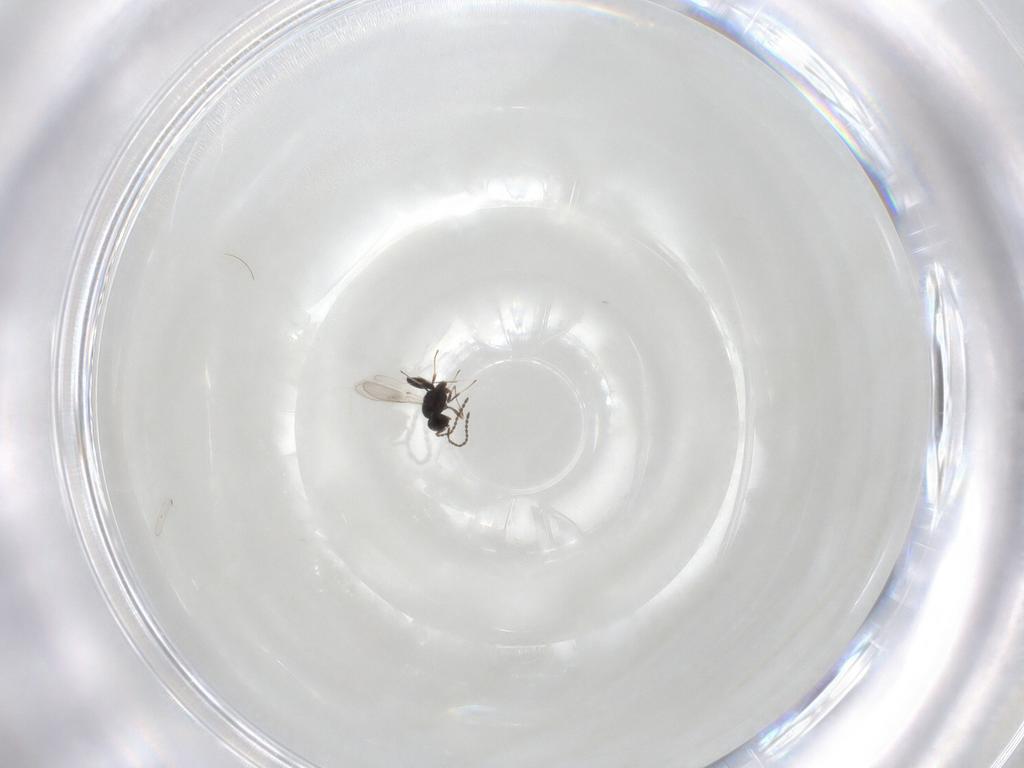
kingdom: Animalia
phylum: Arthropoda
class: Insecta
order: Hymenoptera
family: Scelionidae
